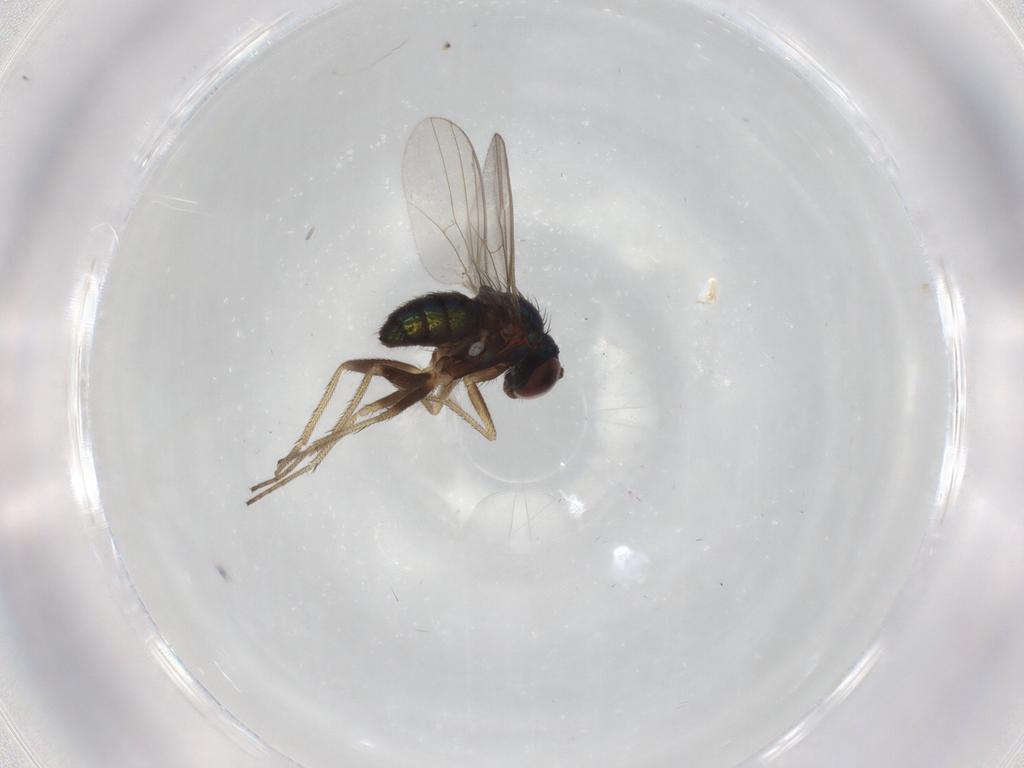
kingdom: Animalia
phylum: Arthropoda
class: Insecta
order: Diptera
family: Dolichopodidae
